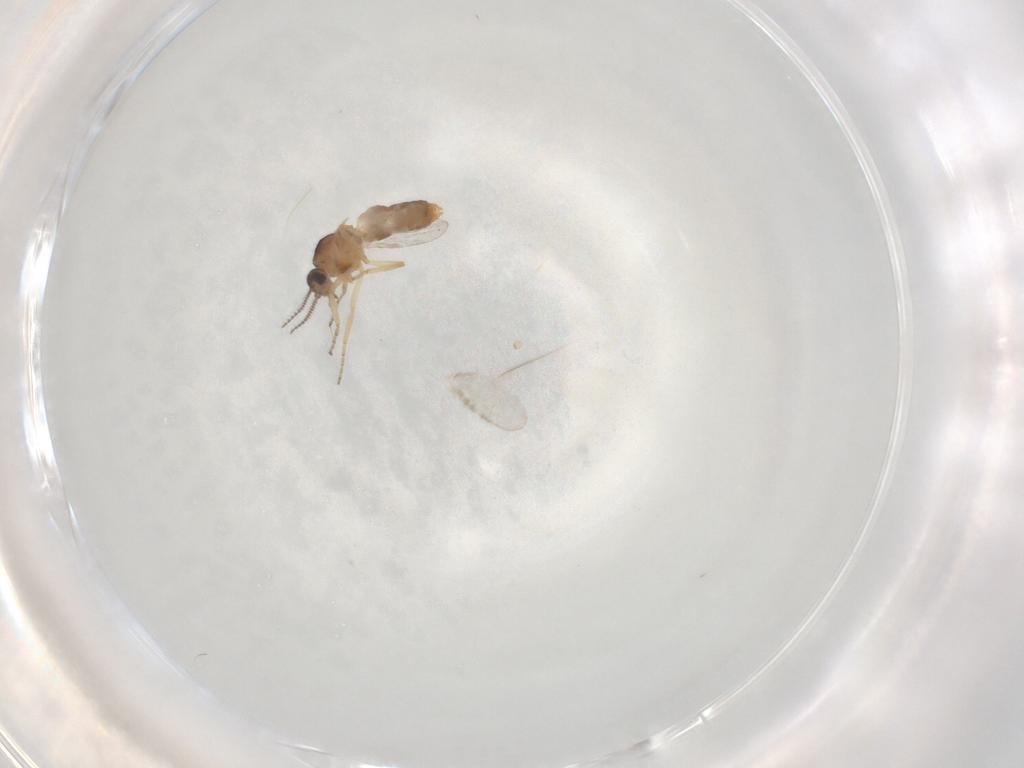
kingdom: Animalia
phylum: Arthropoda
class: Insecta
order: Diptera
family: Ceratopogonidae
